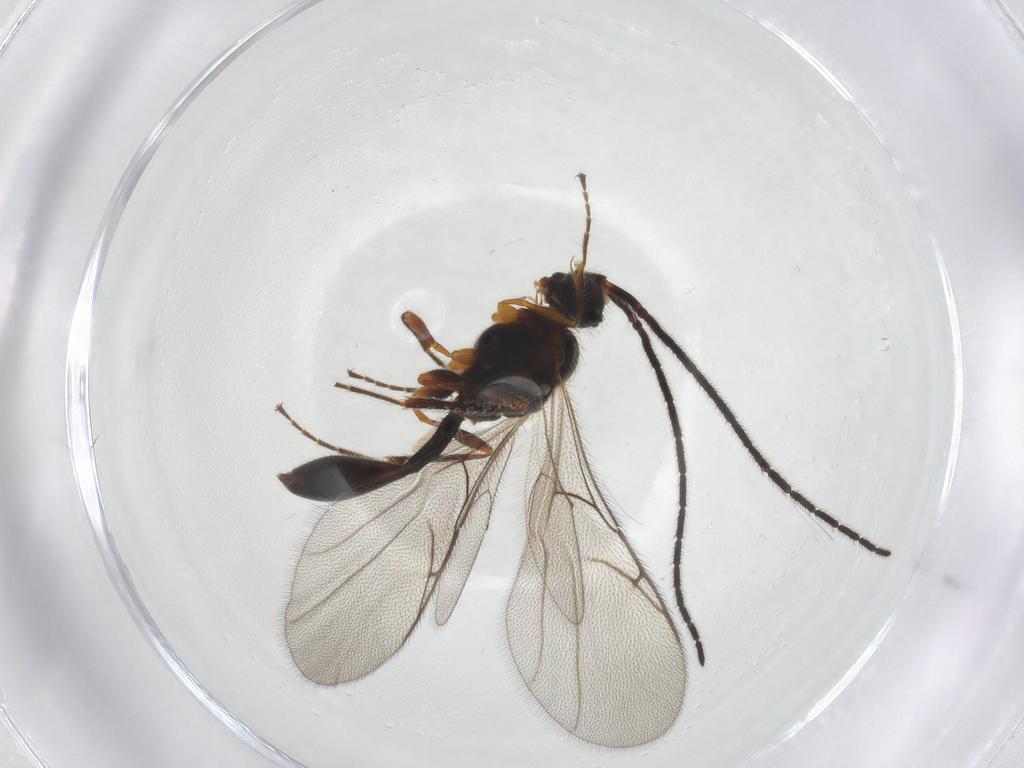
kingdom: Animalia
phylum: Arthropoda
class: Insecta
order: Hymenoptera
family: Diapriidae
